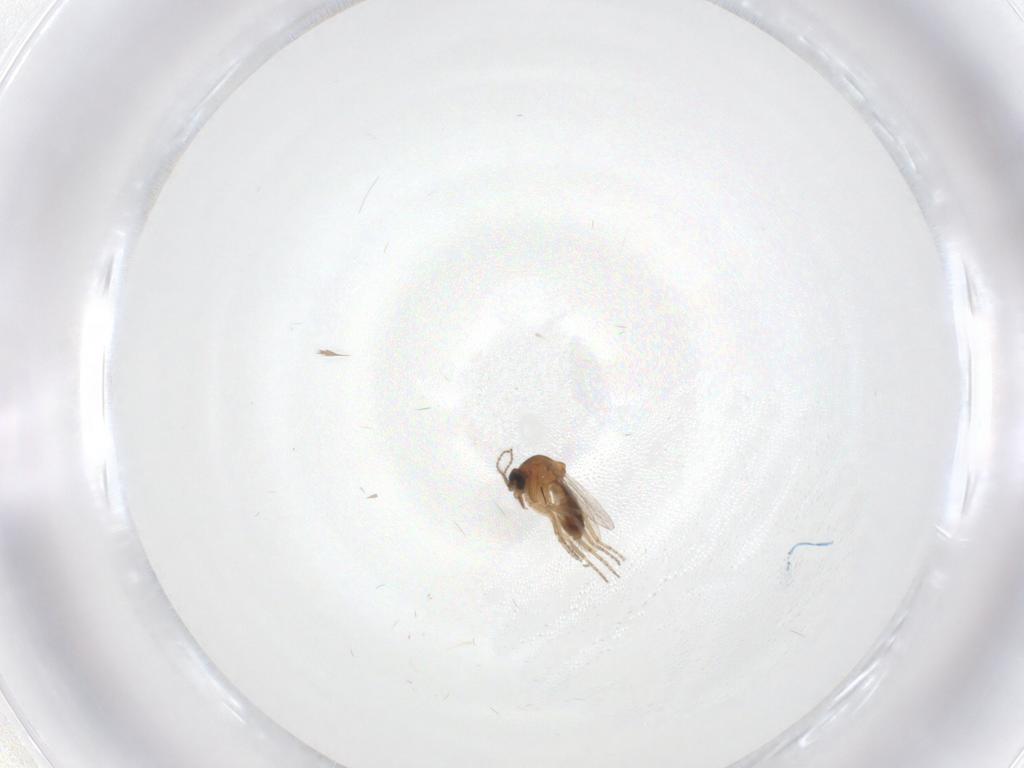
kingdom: Animalia
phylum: Arthropoda
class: Insecta
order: Diptera
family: Ceratopogonidae
